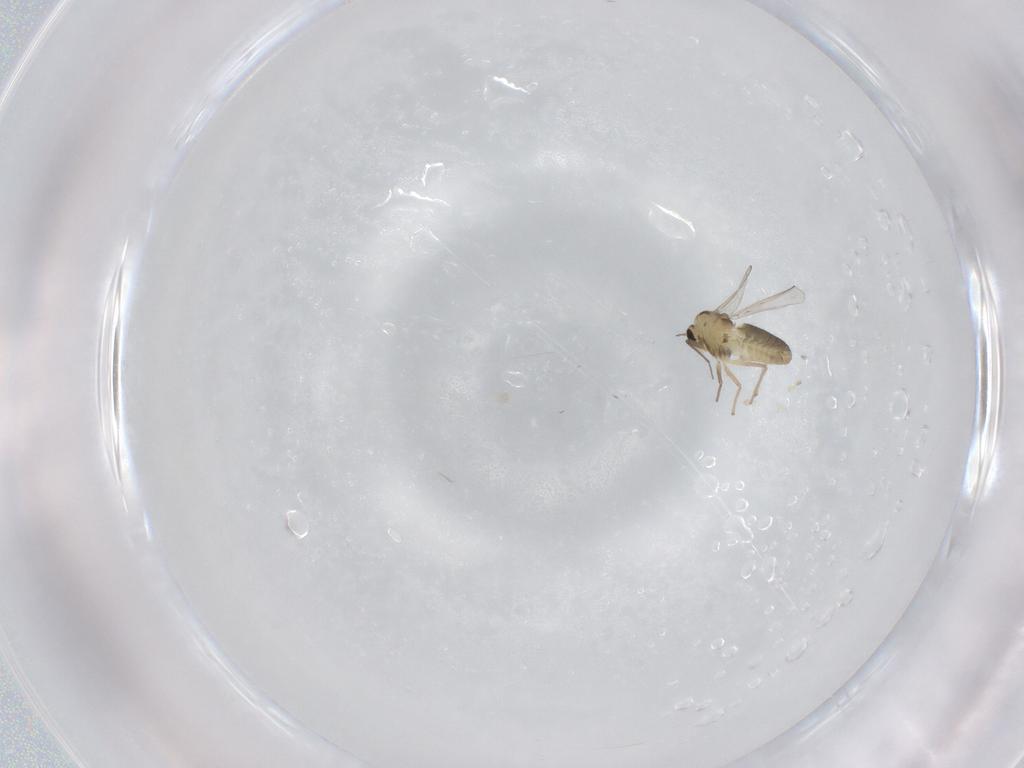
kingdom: Animalia
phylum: Arthropoda
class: Insecta
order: Diptera
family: Chironomidae
